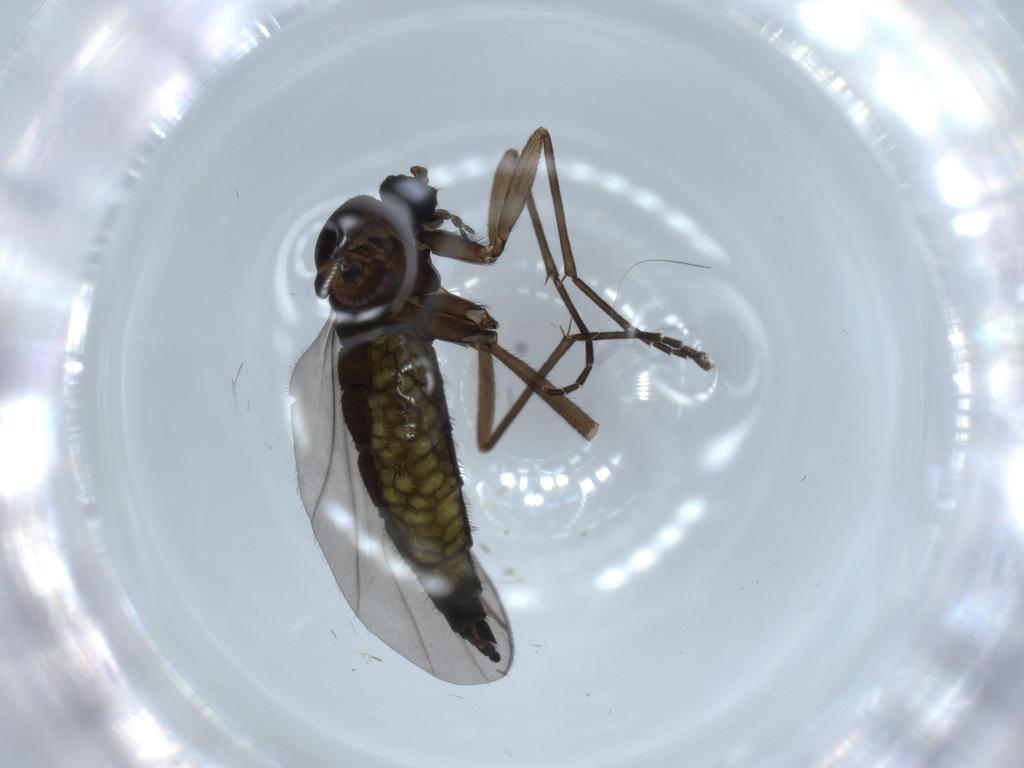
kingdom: Animalia
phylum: Arthropoda
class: Insecta
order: Diptera
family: Sciaridae
